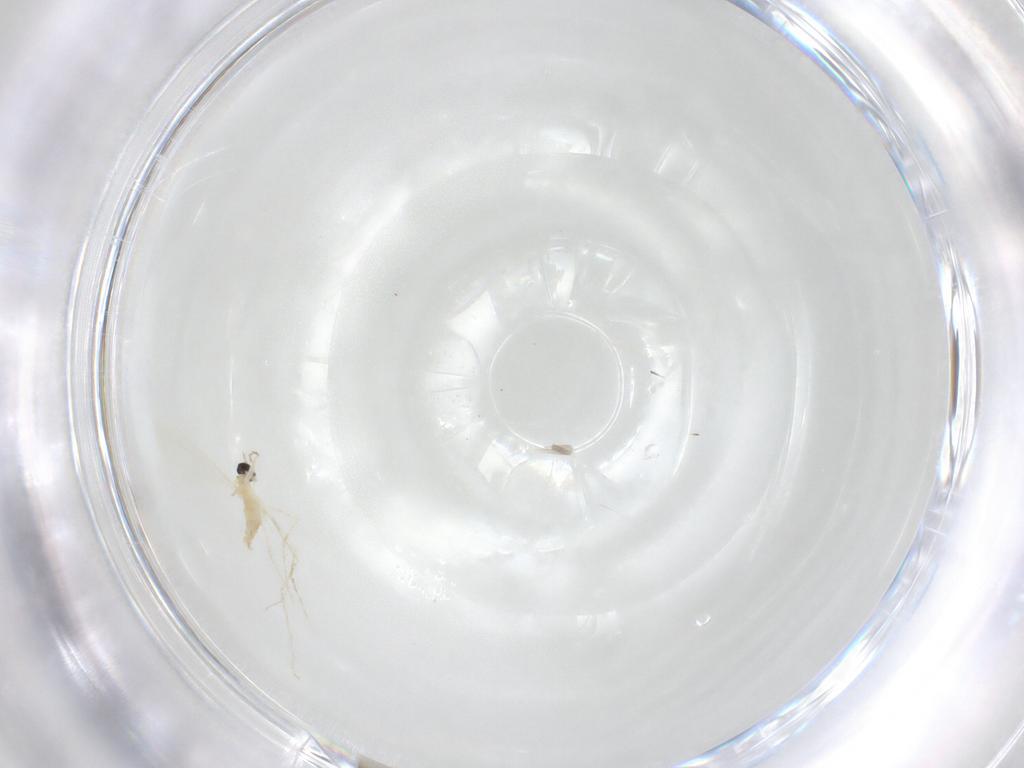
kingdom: Animalia
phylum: Arthropoda
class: Insecta
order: Diptera
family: Cecidomyiidae
